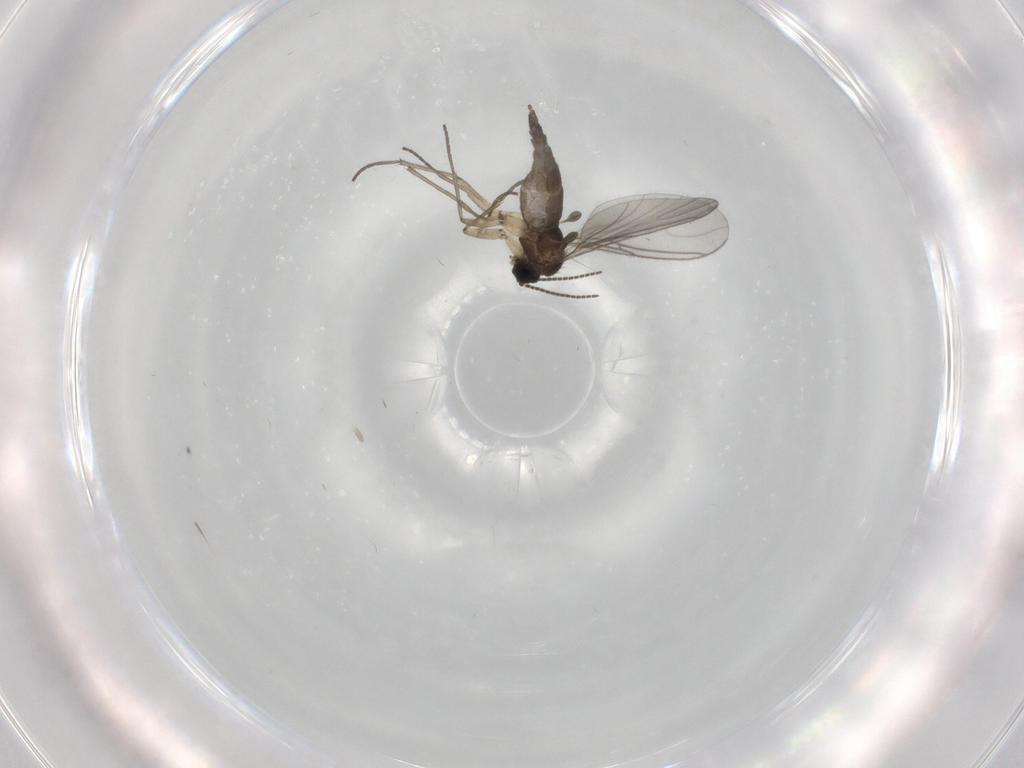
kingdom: Animalia
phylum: Arthropoda
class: Insecta
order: Diptera
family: Sciaridae
